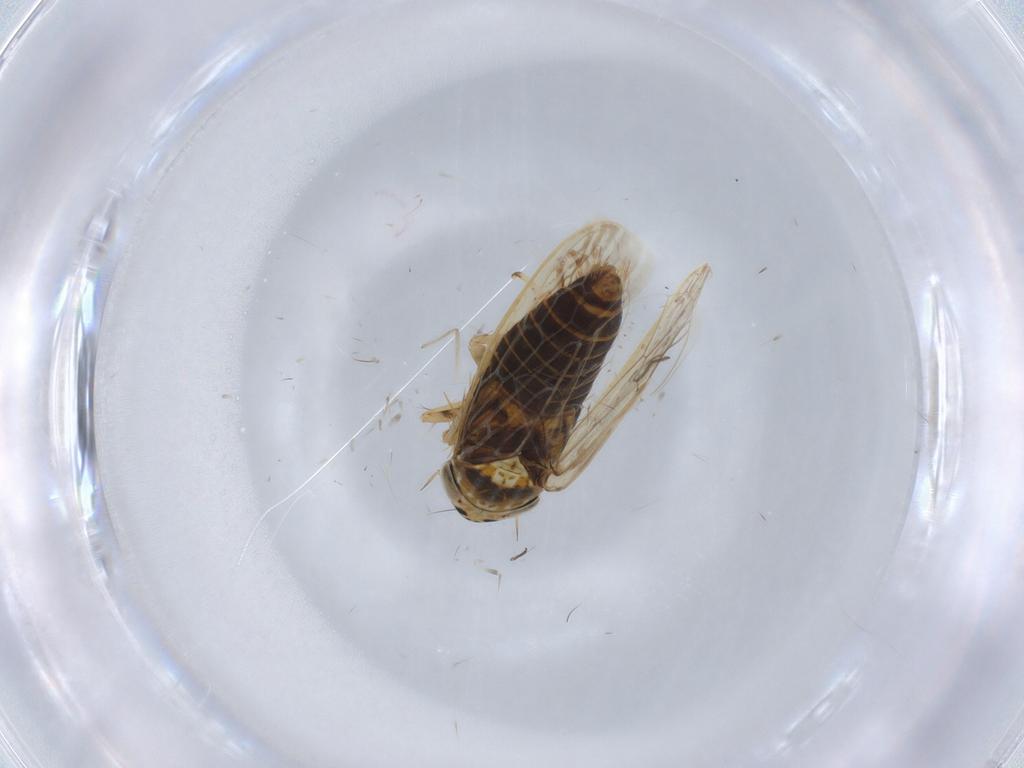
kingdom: Animalia
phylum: Arthropoda
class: Insecta
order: Hemiptera
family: Cicadellidae
